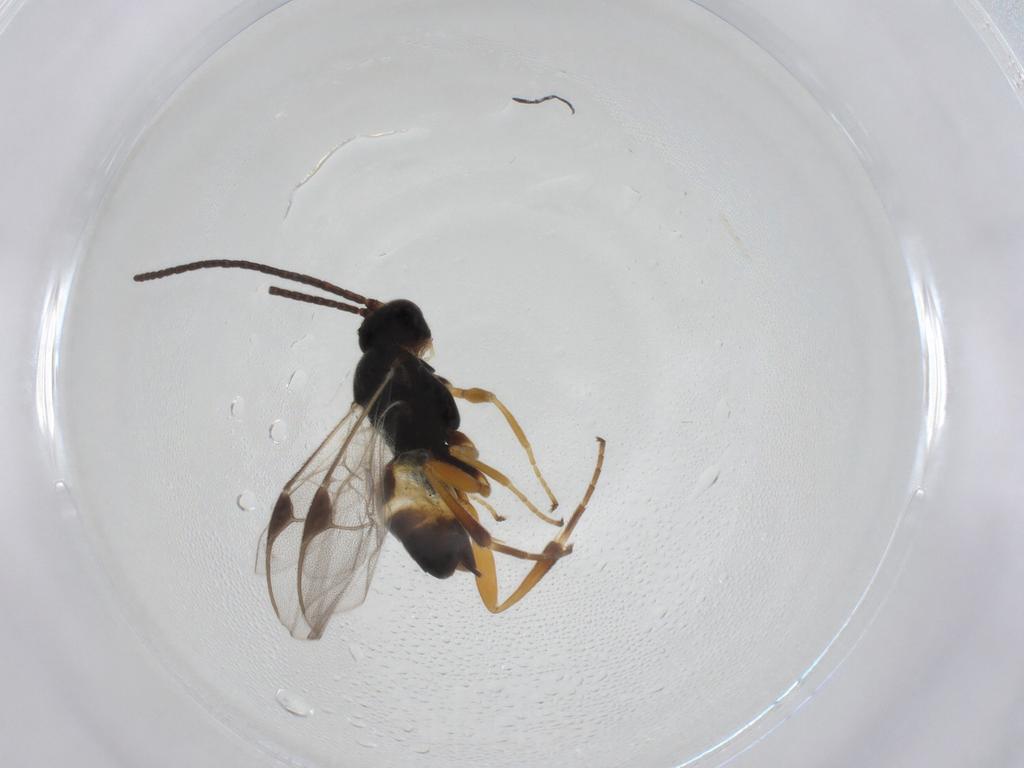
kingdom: Animalia
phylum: Arthropoda
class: Insecta
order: Hymenoptera
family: Braconidae
